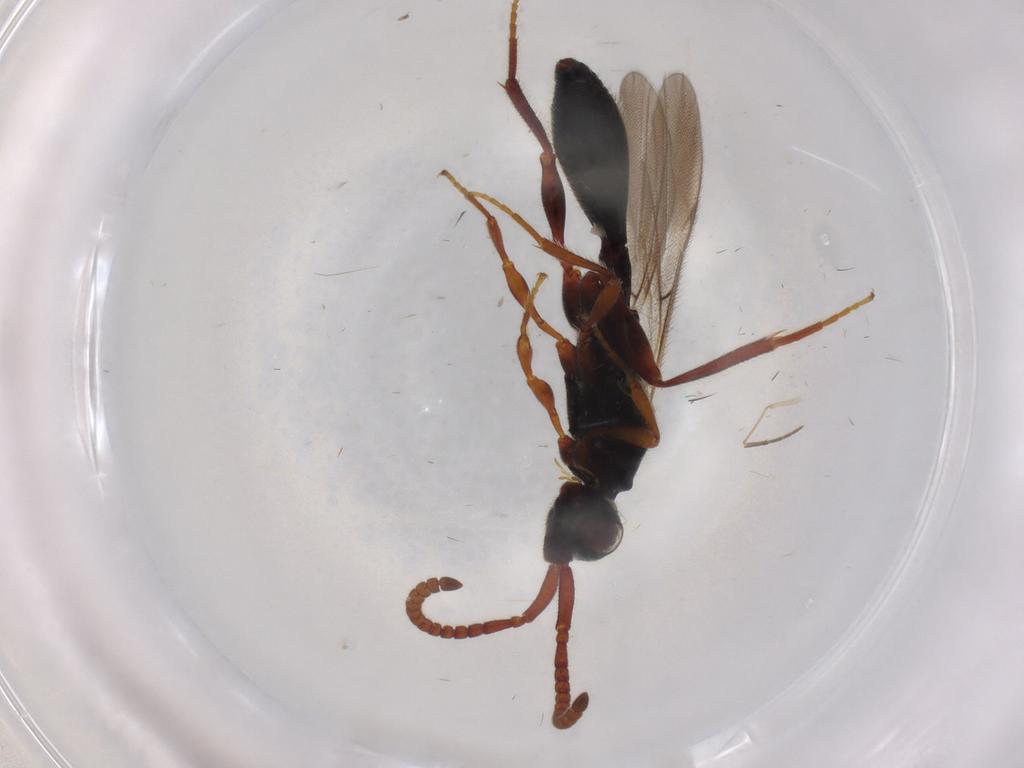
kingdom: Animalia
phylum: Arthropoda
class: Insecta
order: Hymenoptera
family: Diapriidae
